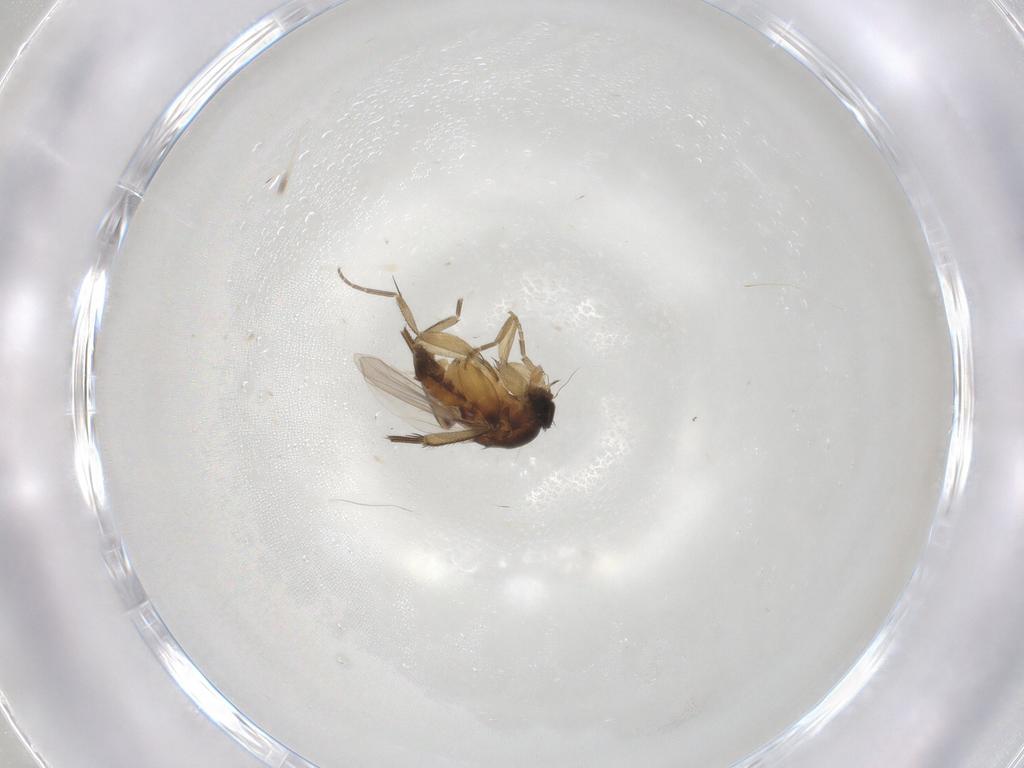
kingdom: Animalia
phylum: Arthropoda
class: Insecta
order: Diptera
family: Phoridae
